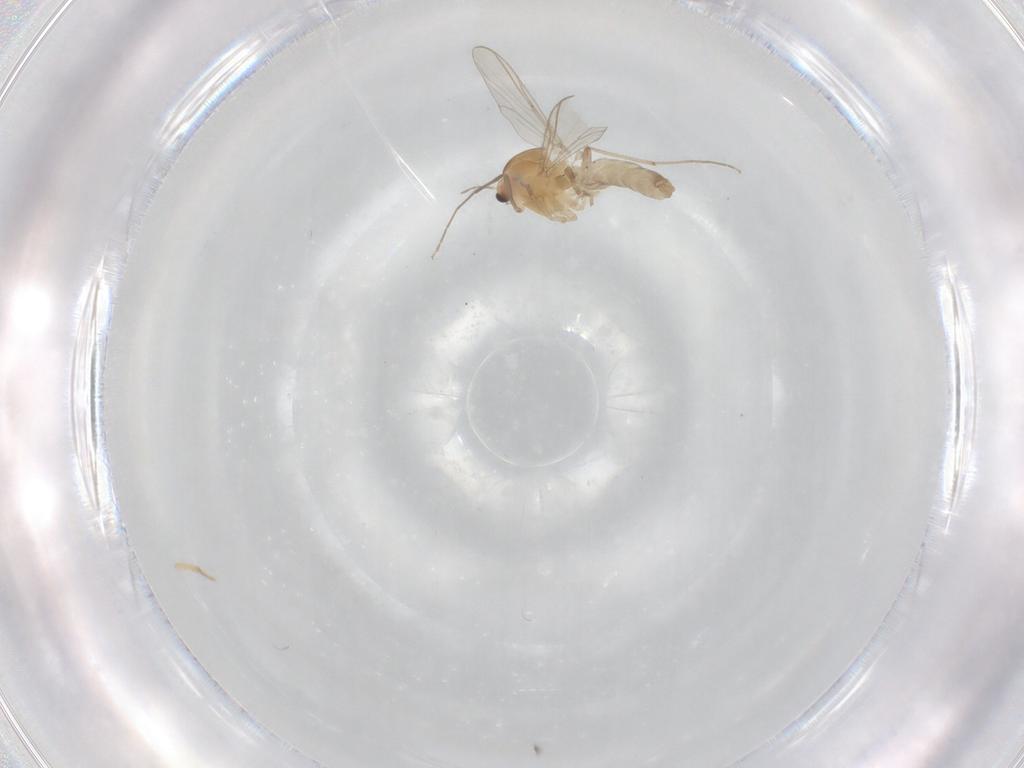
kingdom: Animalia
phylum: Arthropoda
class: Insecta
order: Diptera
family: Chironomidae
